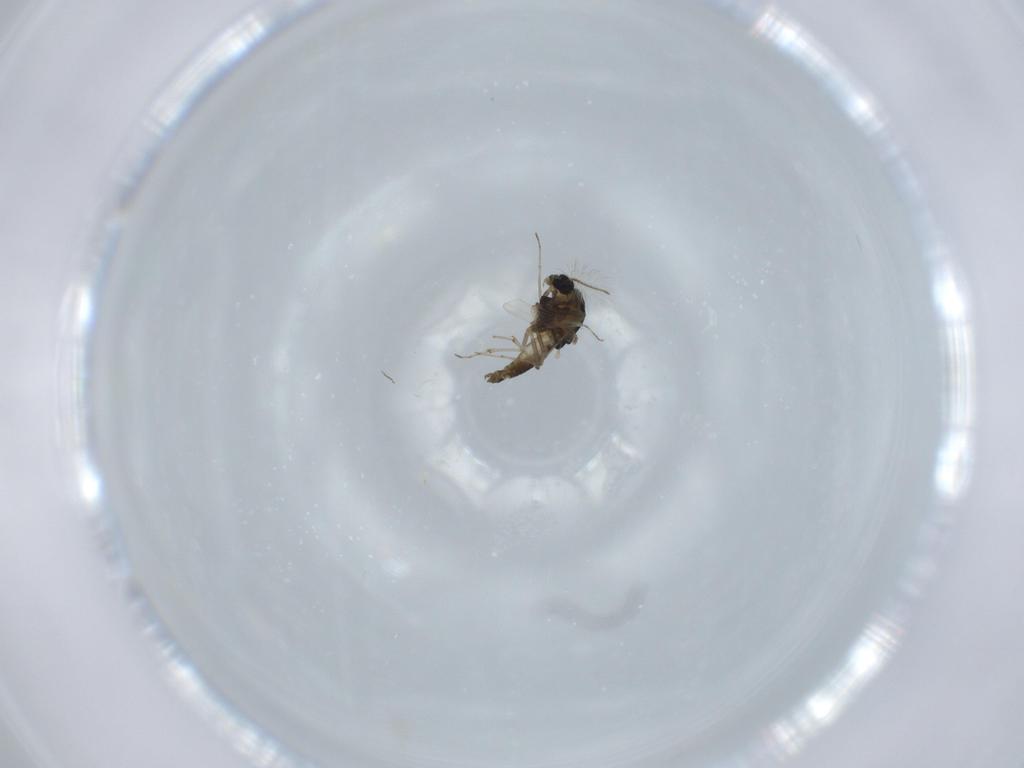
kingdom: Animalia
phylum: Arthropoda
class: Insecta
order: Diptera
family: Chironomidae
